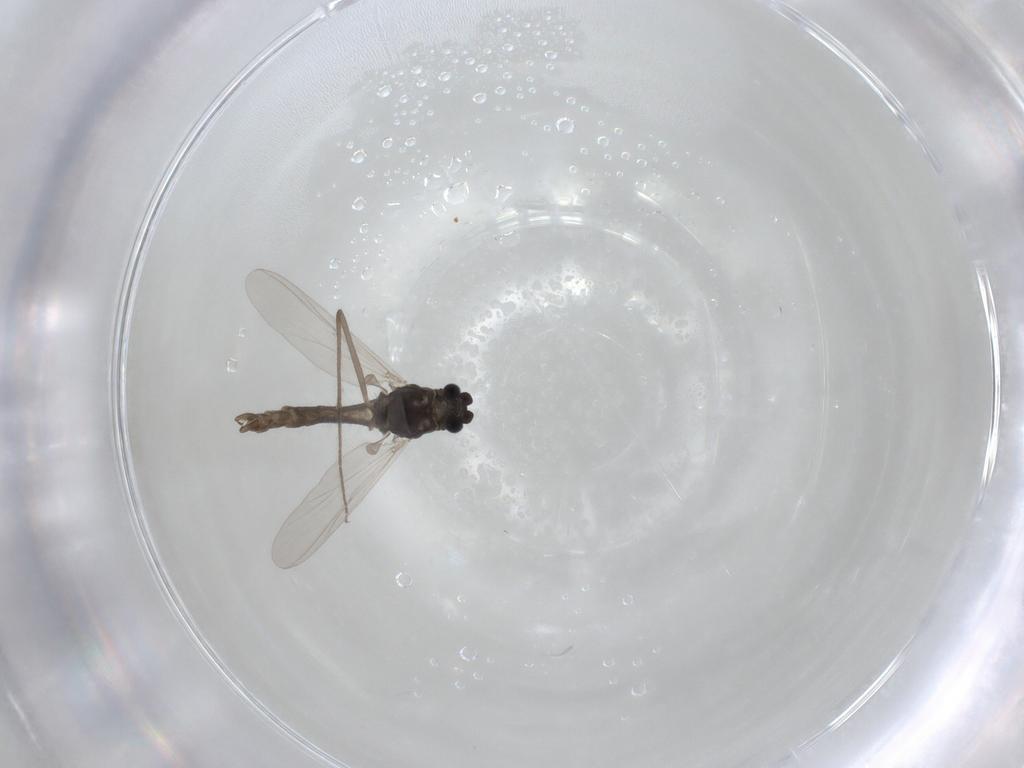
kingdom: Animalia
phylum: Arthropoda
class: Insecta
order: Diptera
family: Chironomidae
